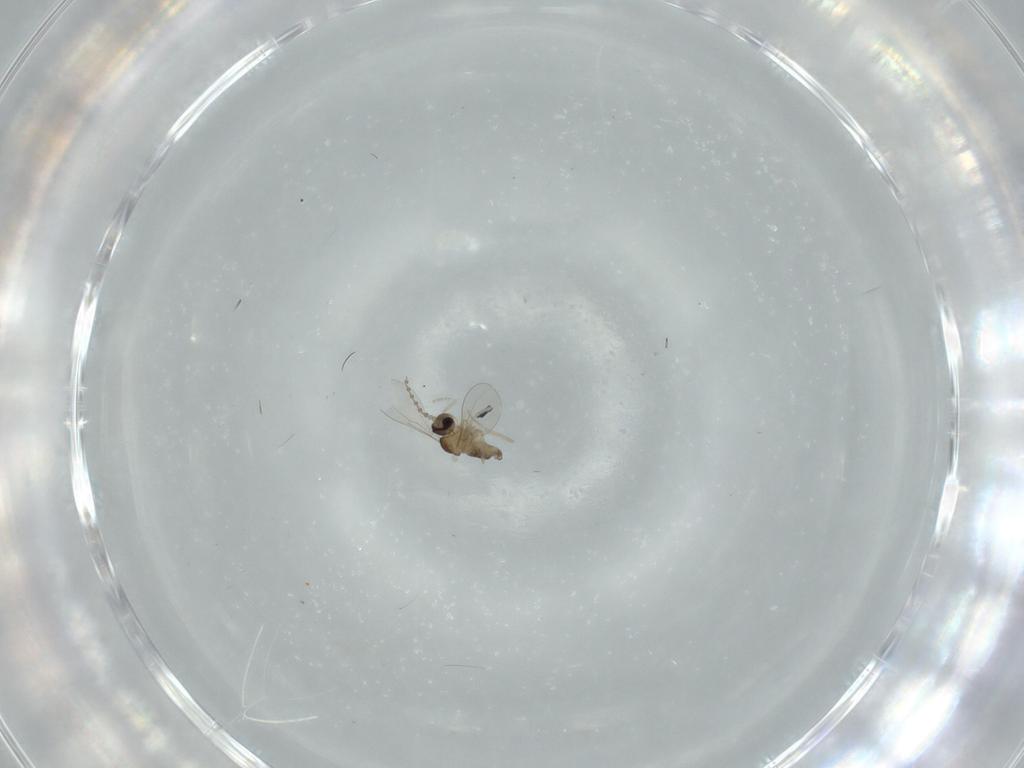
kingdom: Animalia
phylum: Arthropoda
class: Insecta
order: Diptera
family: Cecidomyiidae
